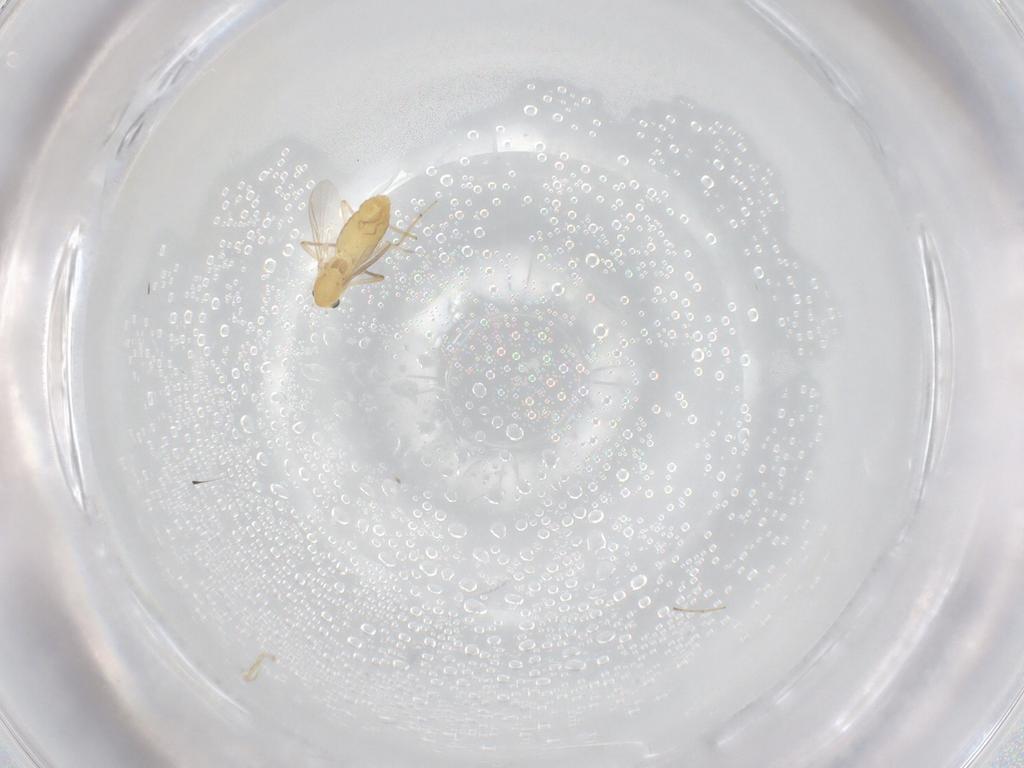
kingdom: Animalia
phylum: Arthropoda
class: Insecta
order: Diptera
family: Chironomidae
